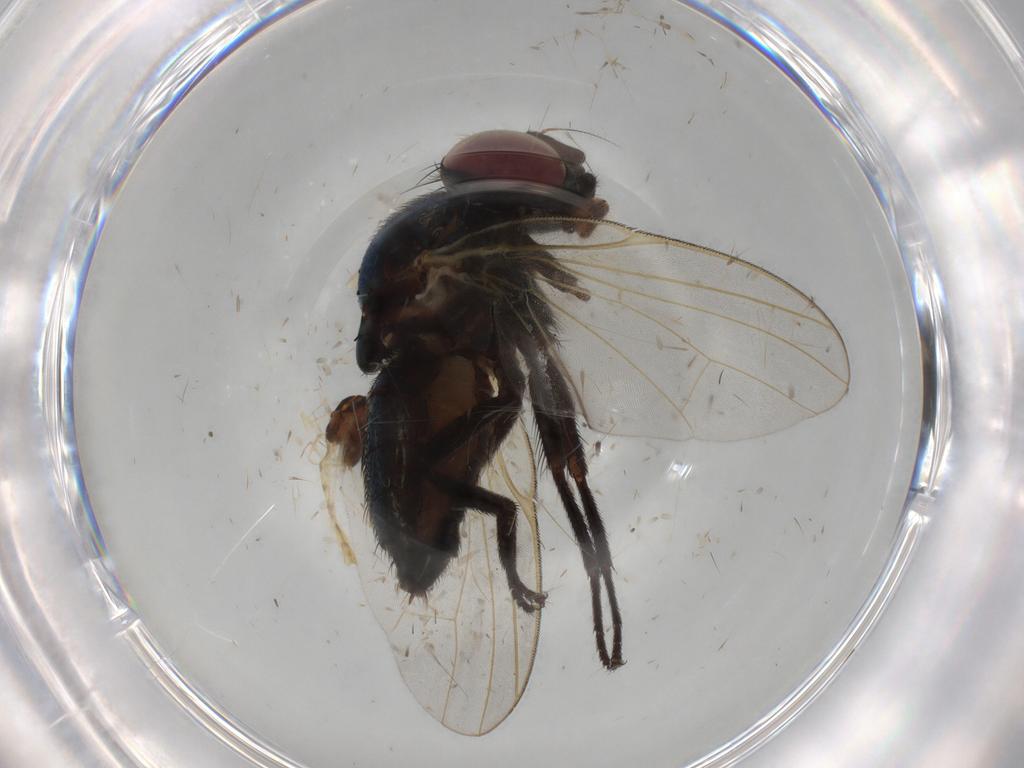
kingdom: Animalia
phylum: Arthropoda
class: Insecta
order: Diptera
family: Chironomidae
